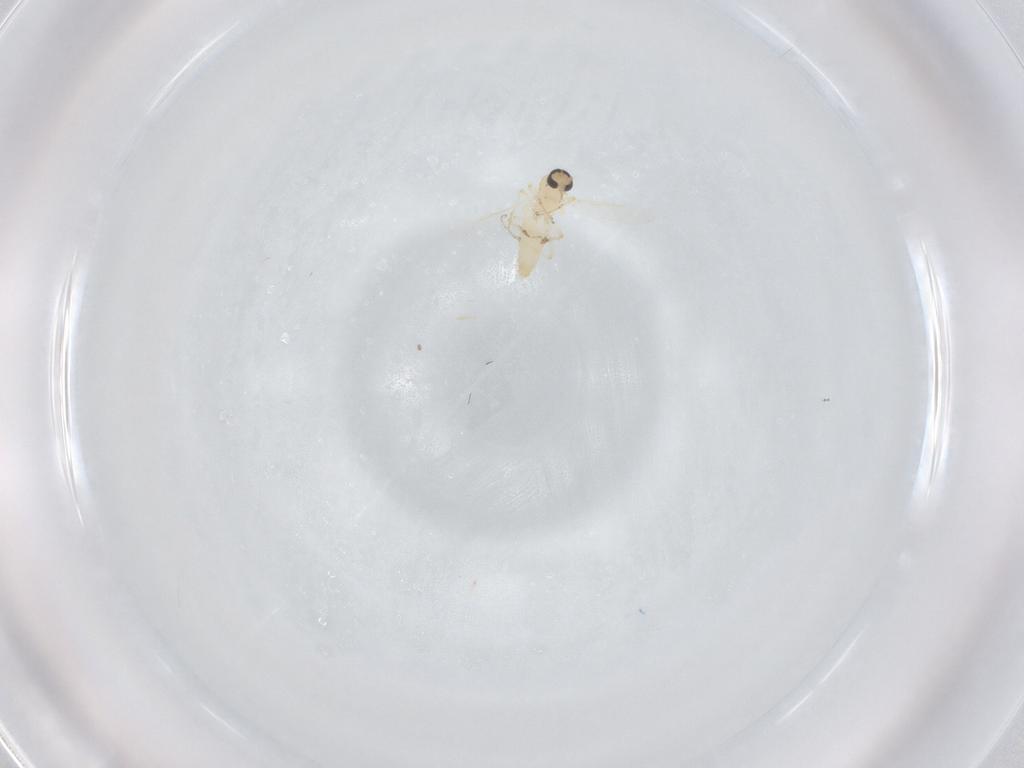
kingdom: Animalia
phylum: Arthropoda
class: Insecta
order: Diptera
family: Ceratopogonidae
